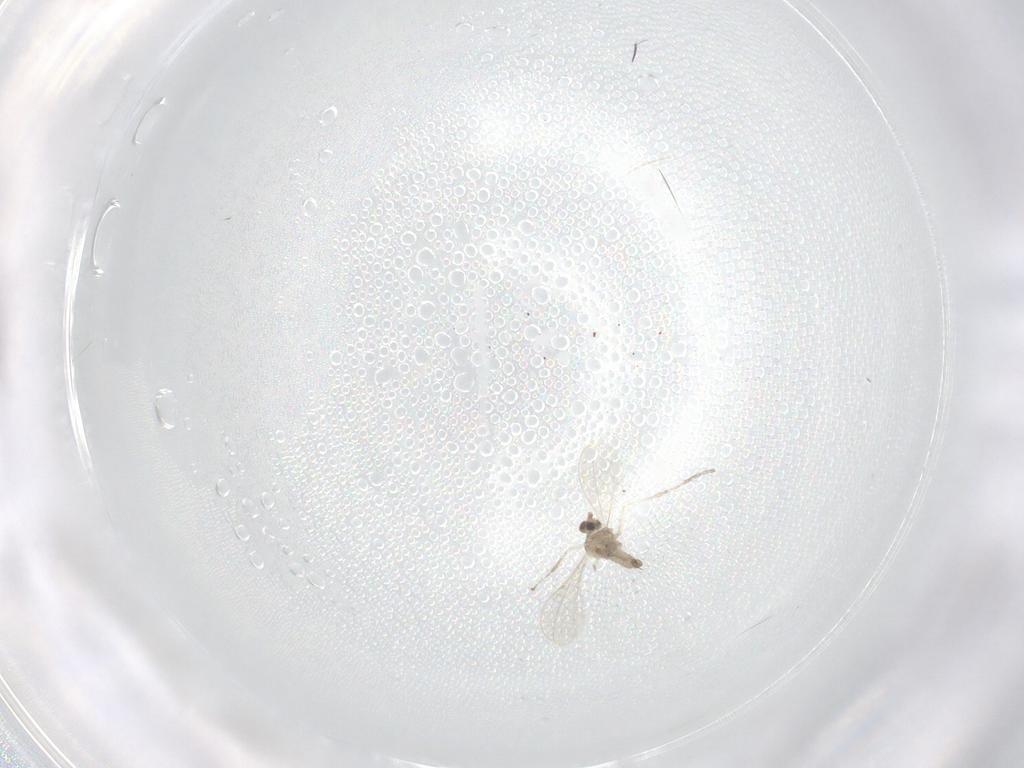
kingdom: Animalia
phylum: Arthropoda
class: Insecta
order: Diptera
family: Cecidomyiidae
